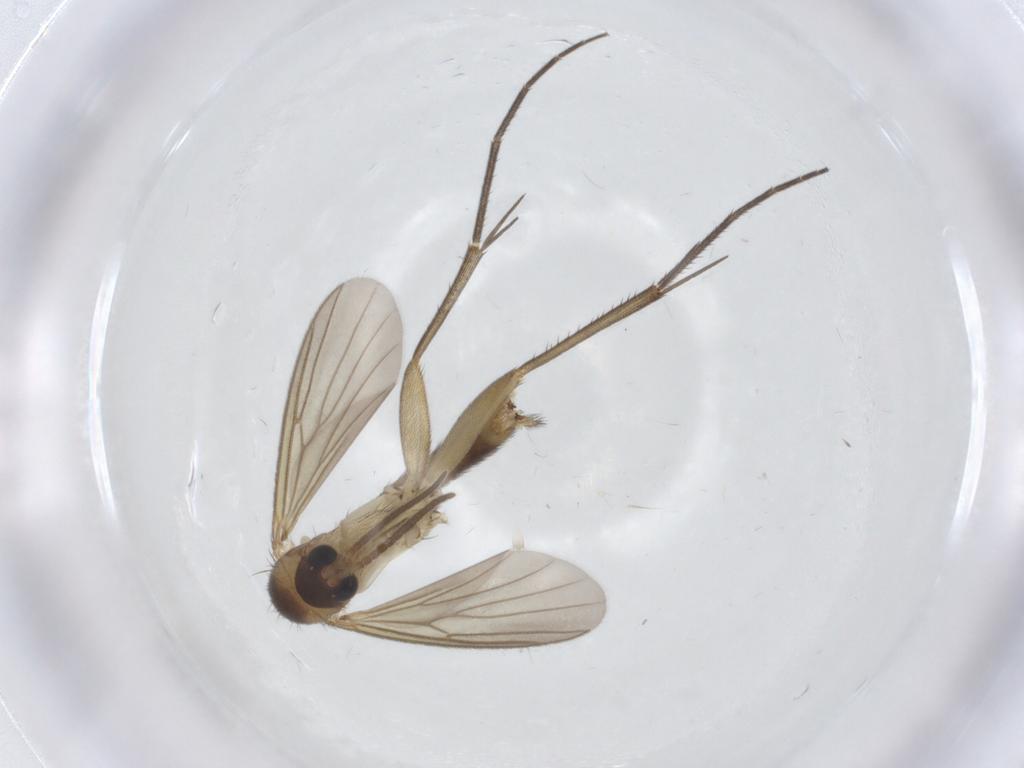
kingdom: Animalia
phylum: Arthropoda
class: Insecta
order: Diptera
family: Mycetophilidae
